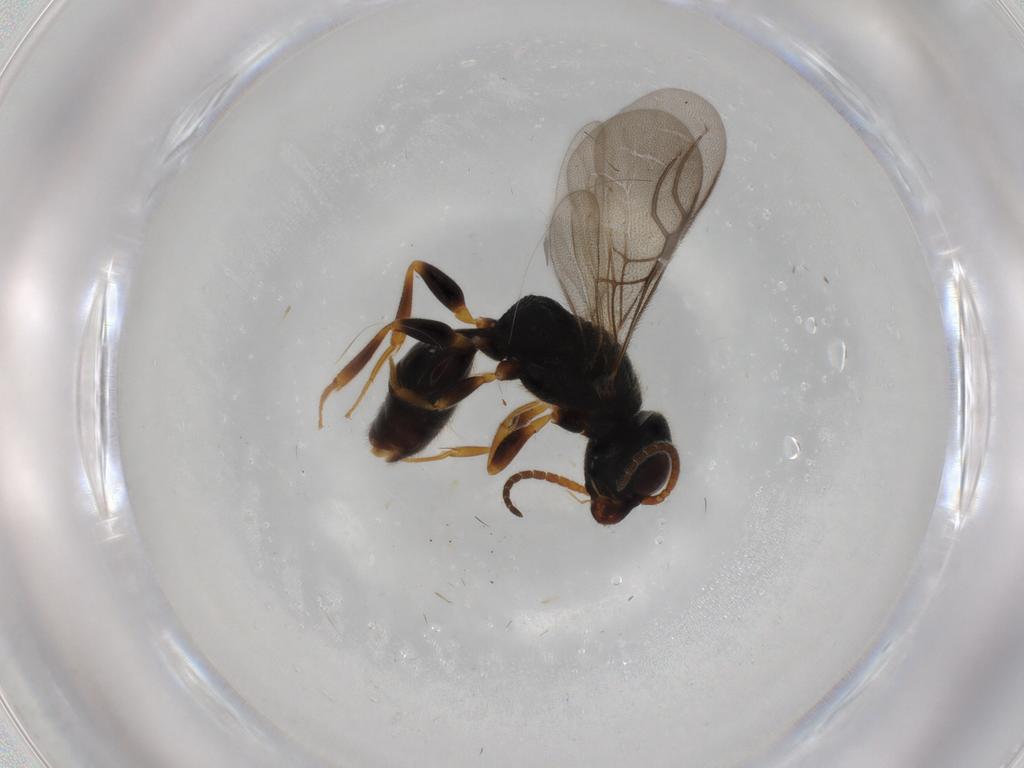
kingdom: Animalia
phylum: Arthropoda
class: Insecta
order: Hymenoptera
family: Bethylidae
